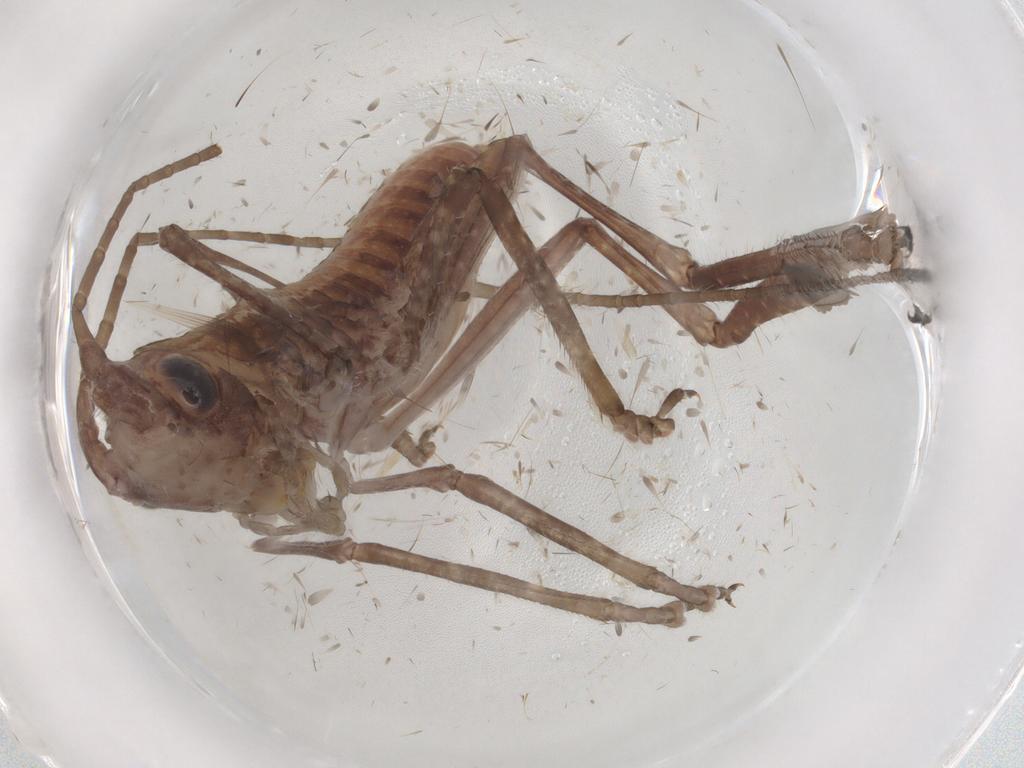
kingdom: Animalia
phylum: Arthropoda
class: Insecta
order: Orthoptera
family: Tettigoniidae
